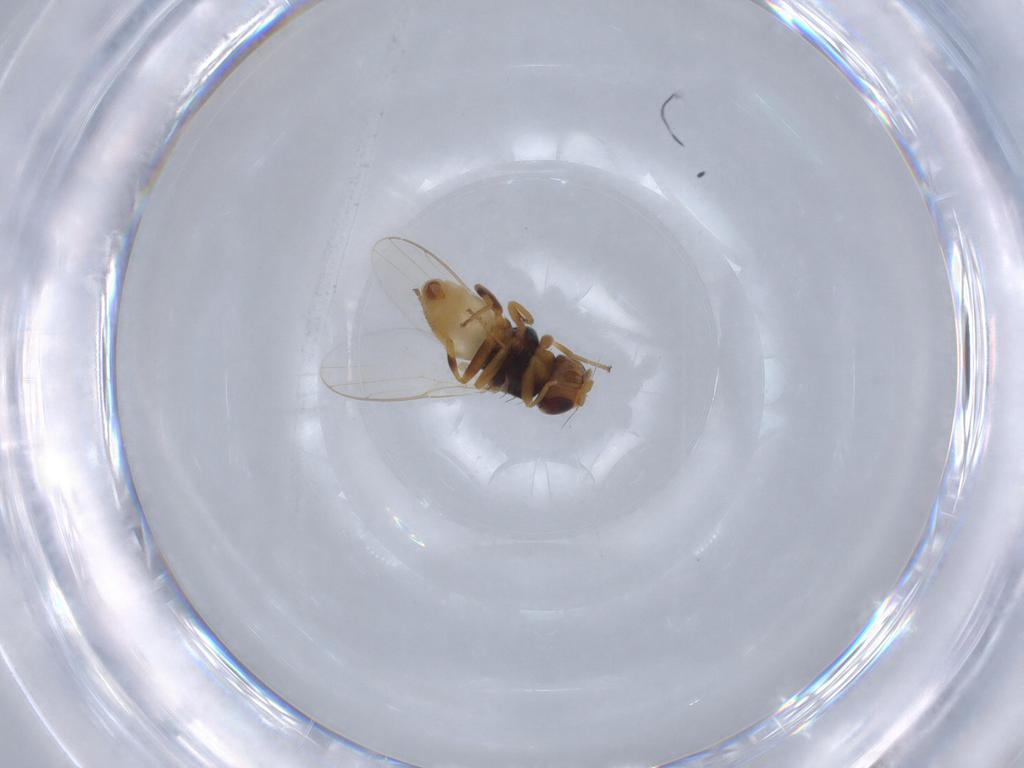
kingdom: Animalia
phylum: Arthropoda
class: Insecta
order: Diptera
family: Chloropidae
